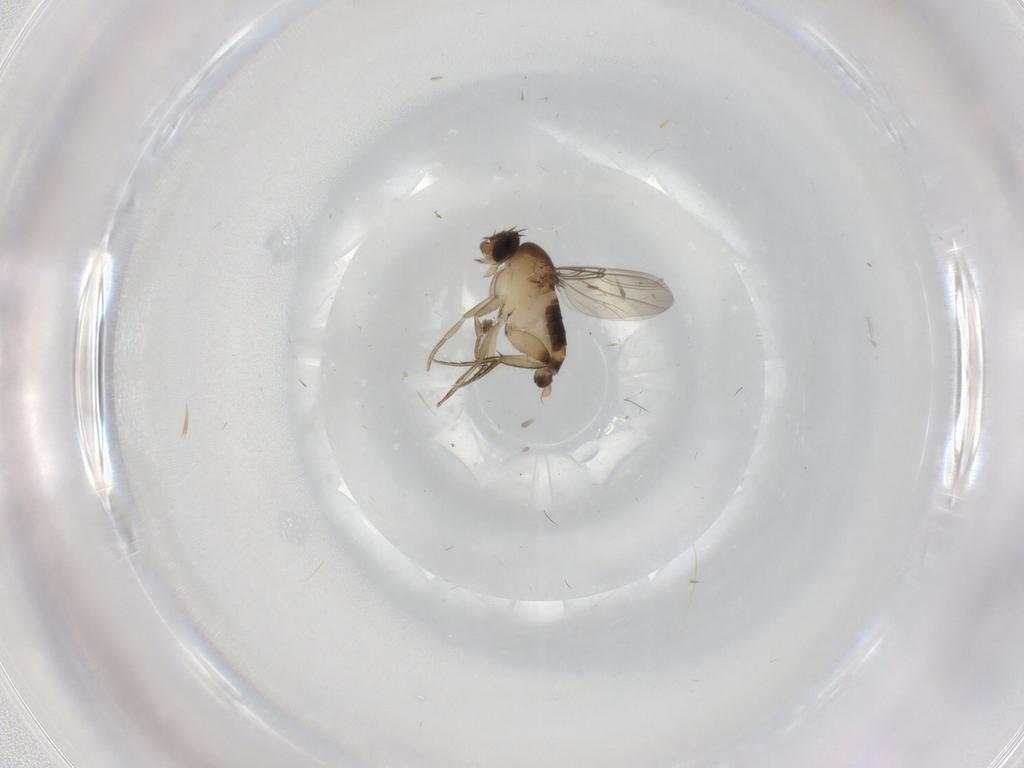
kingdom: Animalia
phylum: Arthropoda
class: Insecta
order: Diptera
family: Phoridae
